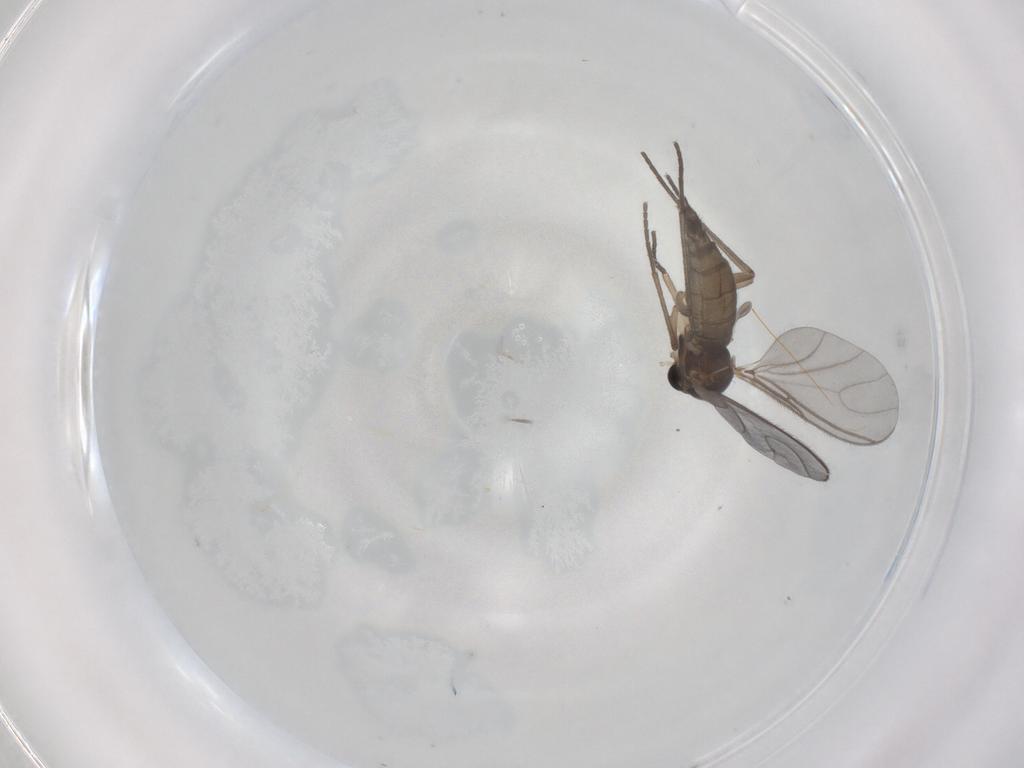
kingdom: Animalia
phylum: Arthropoda
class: Insecta
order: Diptera
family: Sciaridae
